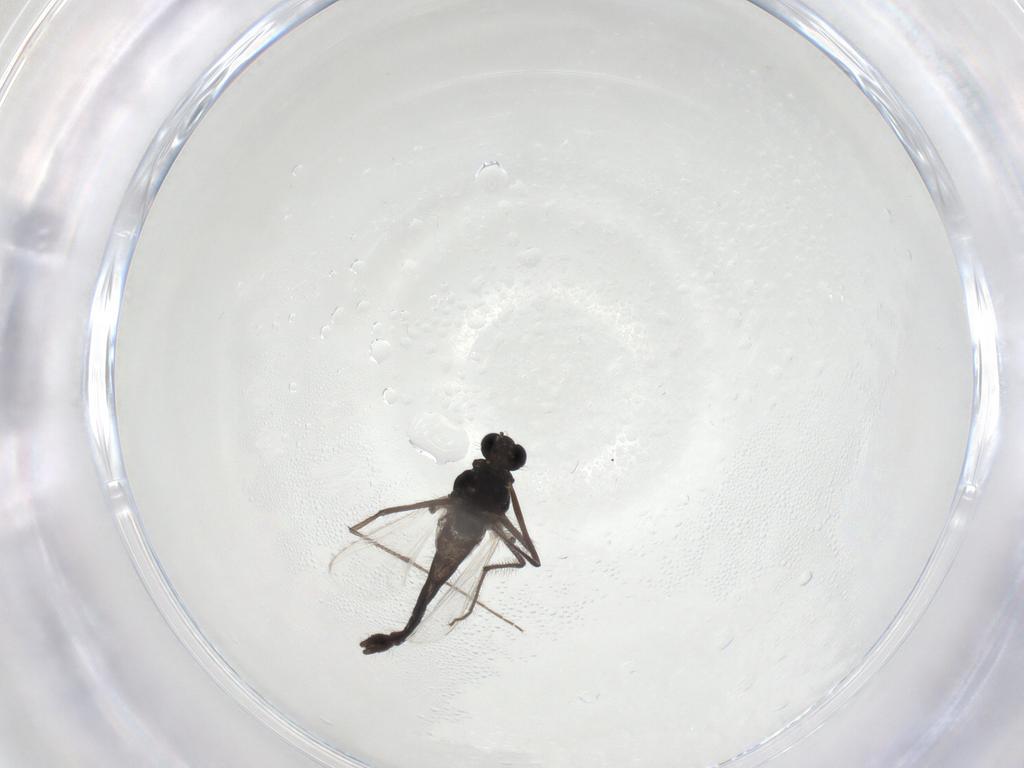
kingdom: Animalia
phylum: Arthropoda
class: Insecta
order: Diptera
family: Chironomidae
